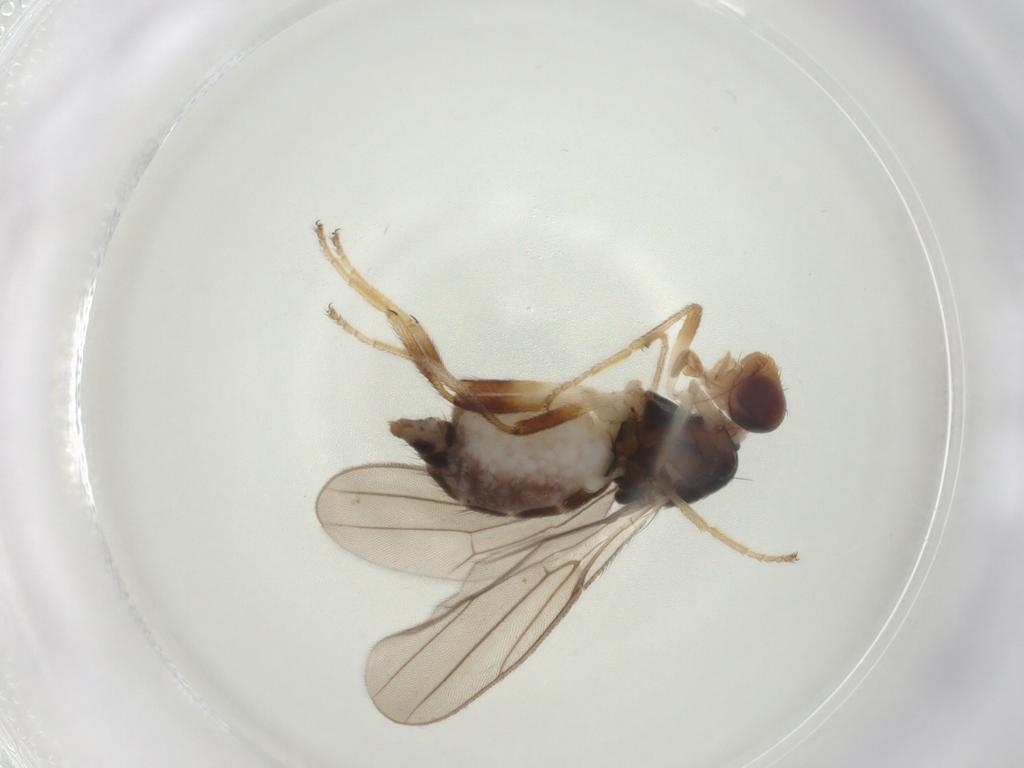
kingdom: Animalia
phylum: Arthropoda
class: Insecta
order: Diptera
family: Chloropidae
